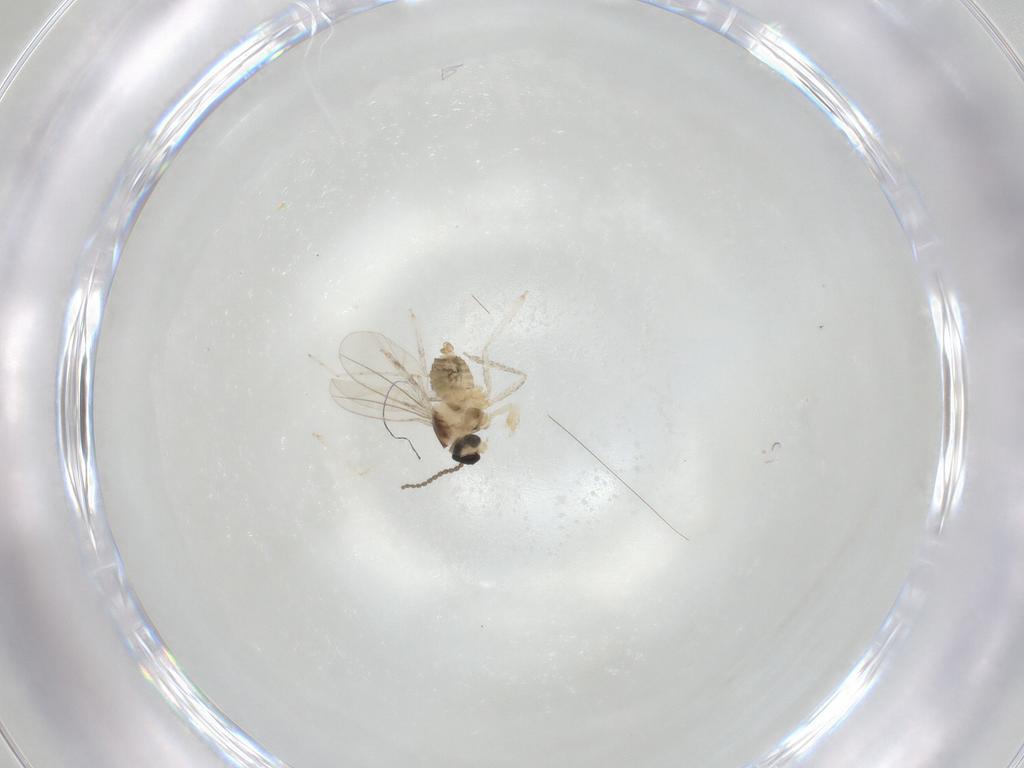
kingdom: Animalia
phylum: Arthropoda
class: Insecta
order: Diptera
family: Cecidomyiidae
